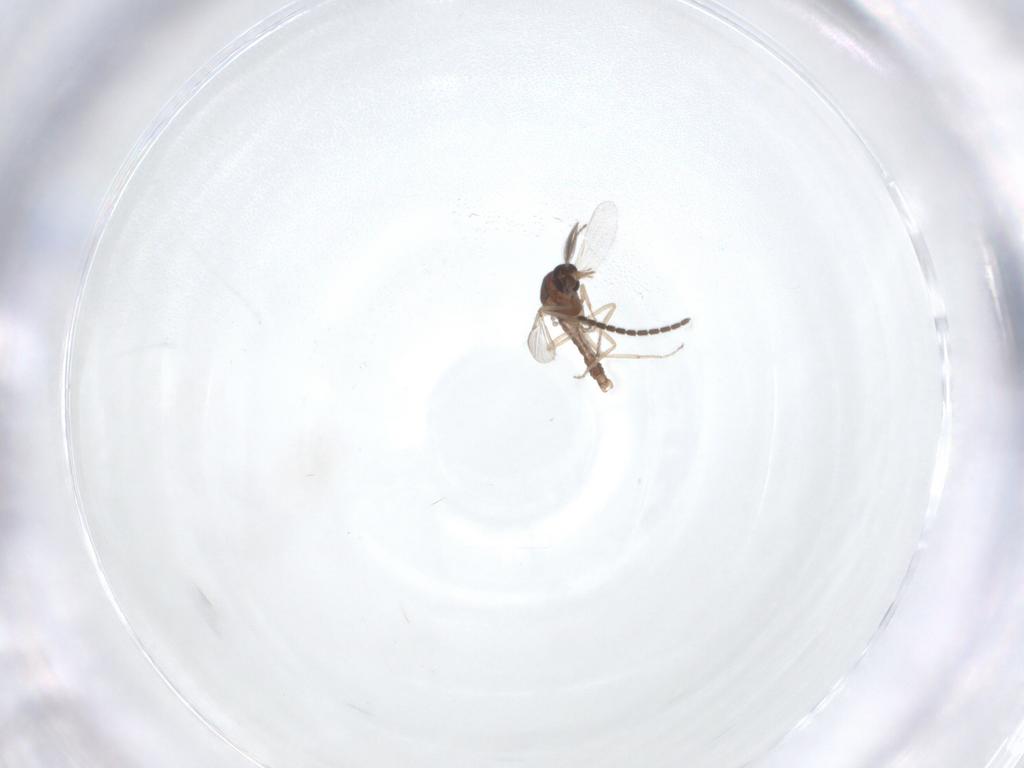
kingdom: Animalia
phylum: Arthropoda
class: Insecta
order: Diptera
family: Ceratopogonidae
